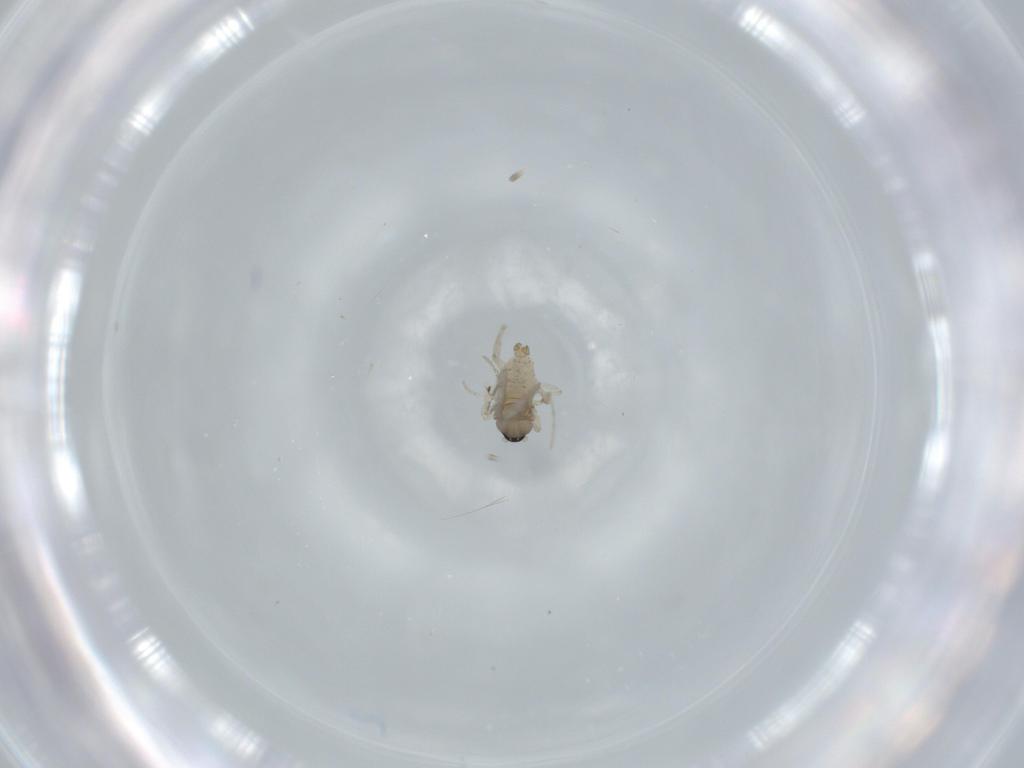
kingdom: Animalia
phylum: Arthropoda
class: Insecta
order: Diptera
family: Cecidomyiidae
